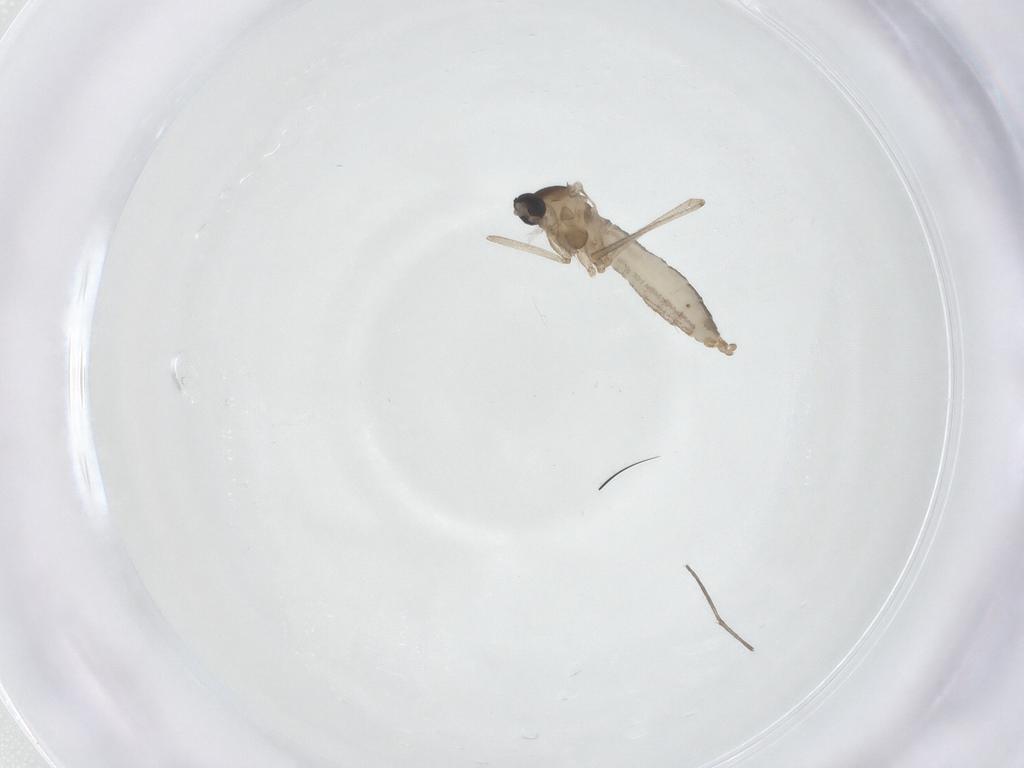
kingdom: Animalia
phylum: Arthropoda
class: Insecta
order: Diptera
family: Cecidomyiidae
